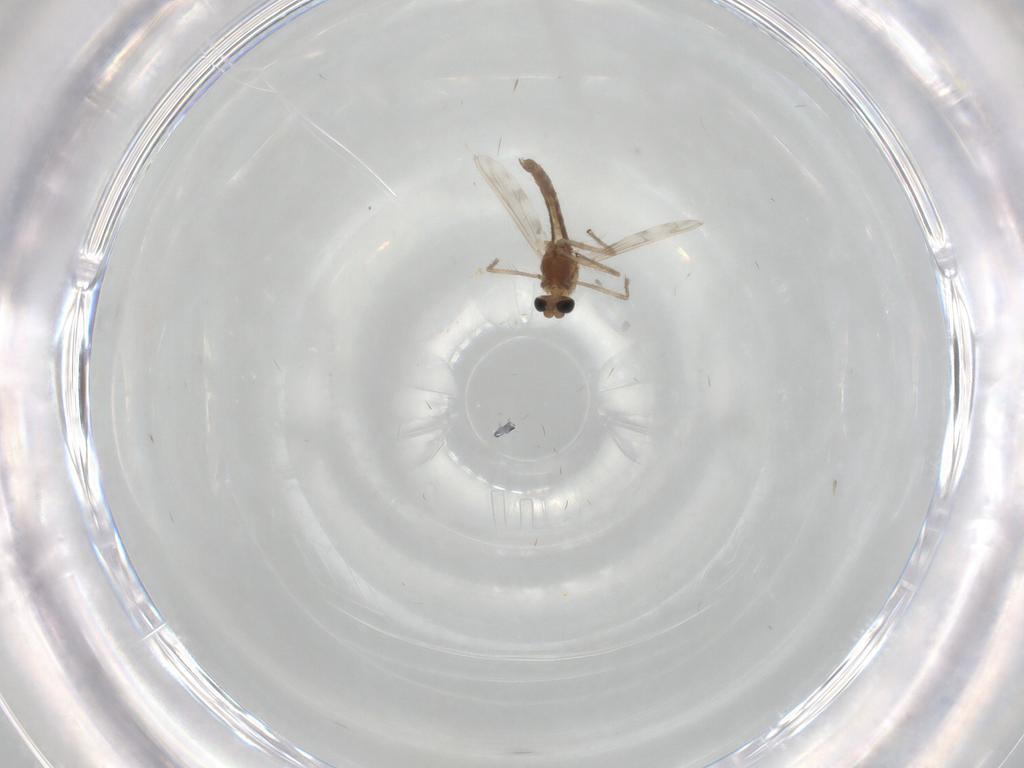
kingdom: Animalia
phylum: Arthropoda
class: Insecta
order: Diptera
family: Chironomidae
